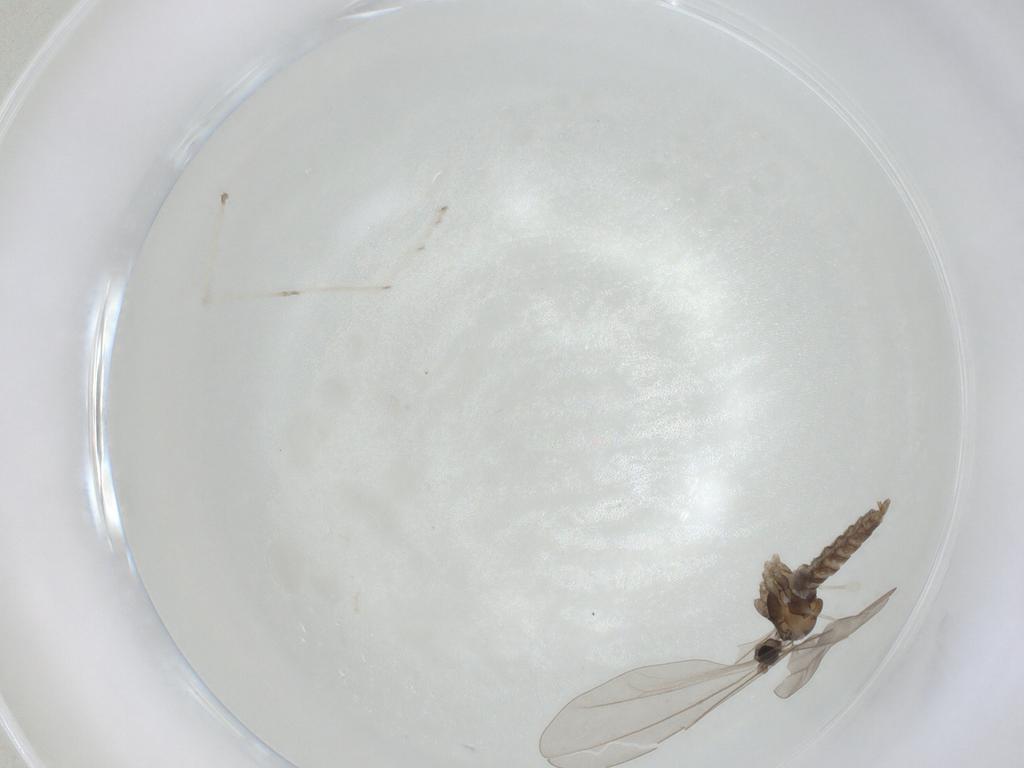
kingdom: Animalia
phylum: Arthropoda
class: Insecta
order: Diptera
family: Cecidomyiidae
